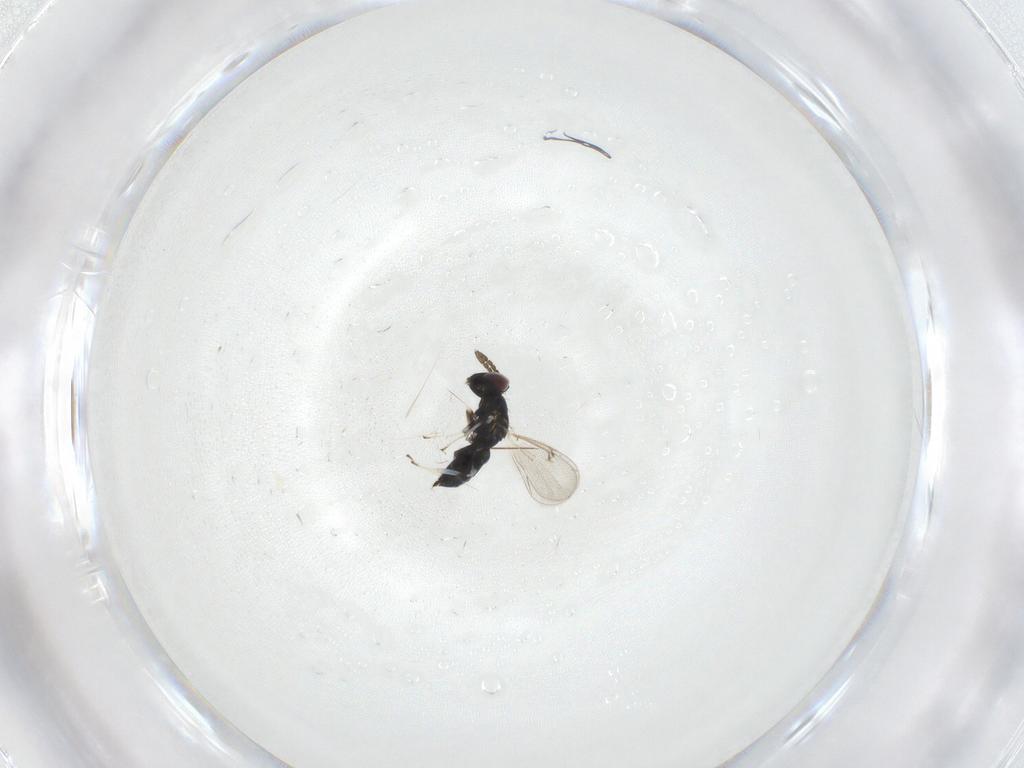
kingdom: Animalia
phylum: Arthropoda
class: Insecta
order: Hymenoptera
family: Eulophidae
